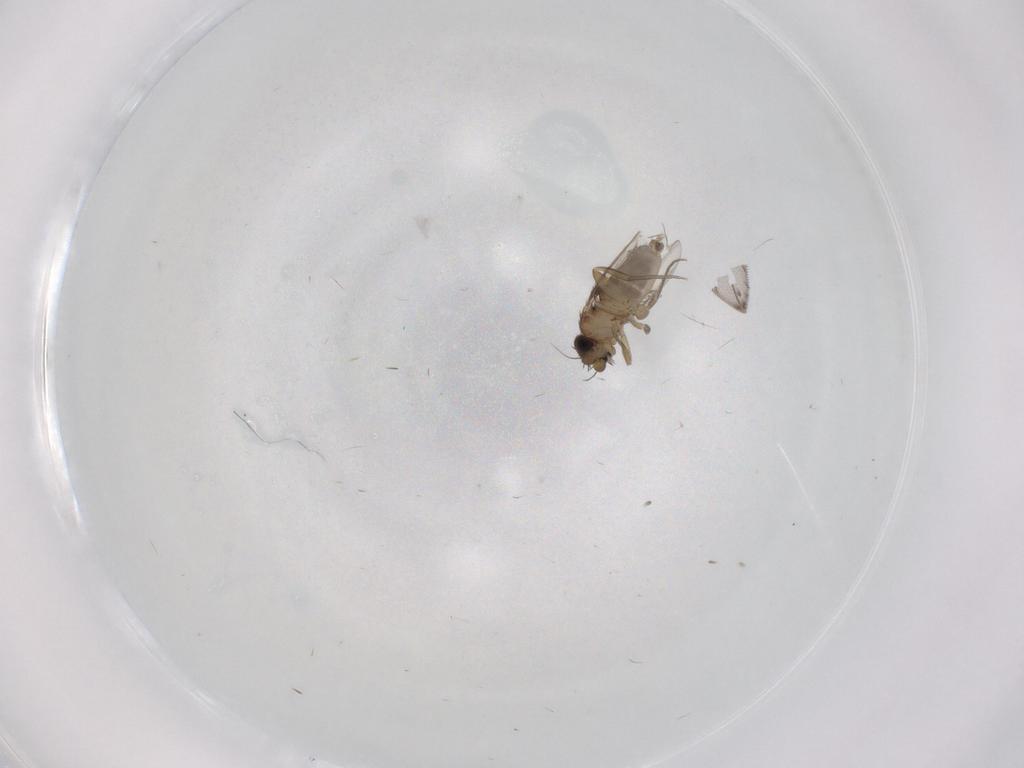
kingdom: Animalia
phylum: Arthropoda
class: Insecta
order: Diptera
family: Phoridae
